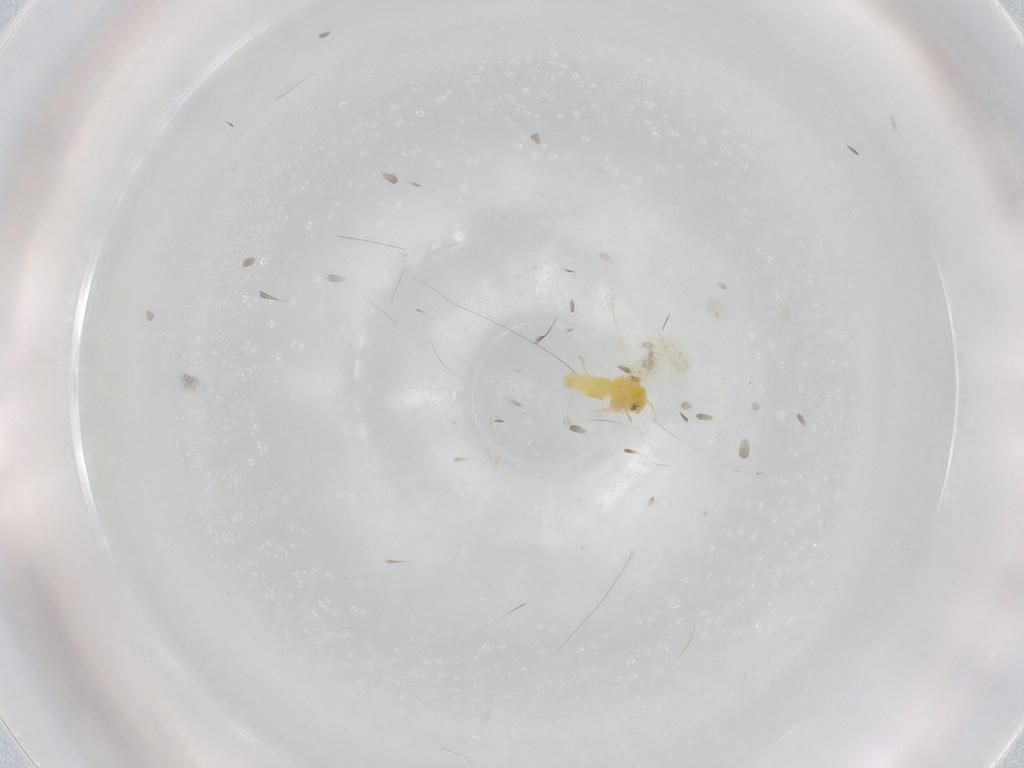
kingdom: Animalia
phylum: Arthropoda
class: Insecta
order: Hemiptera
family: Aleyrodidae
